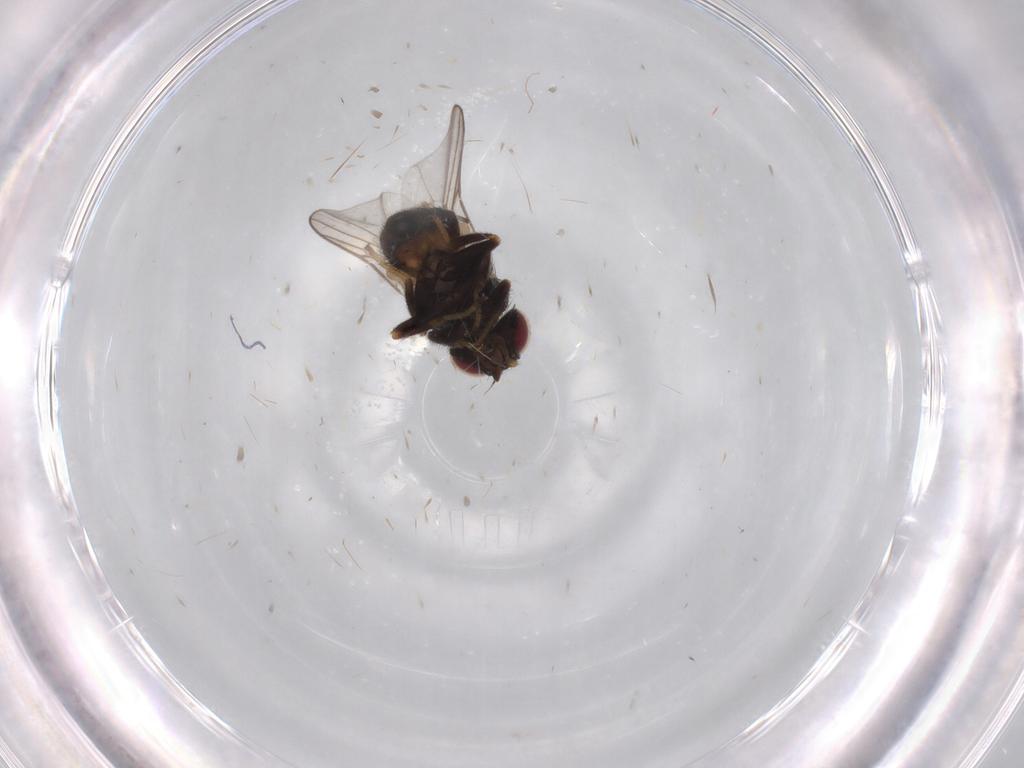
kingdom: Animalia
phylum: Arthropoda
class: Insecta
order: Diptera
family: Chloropidae
